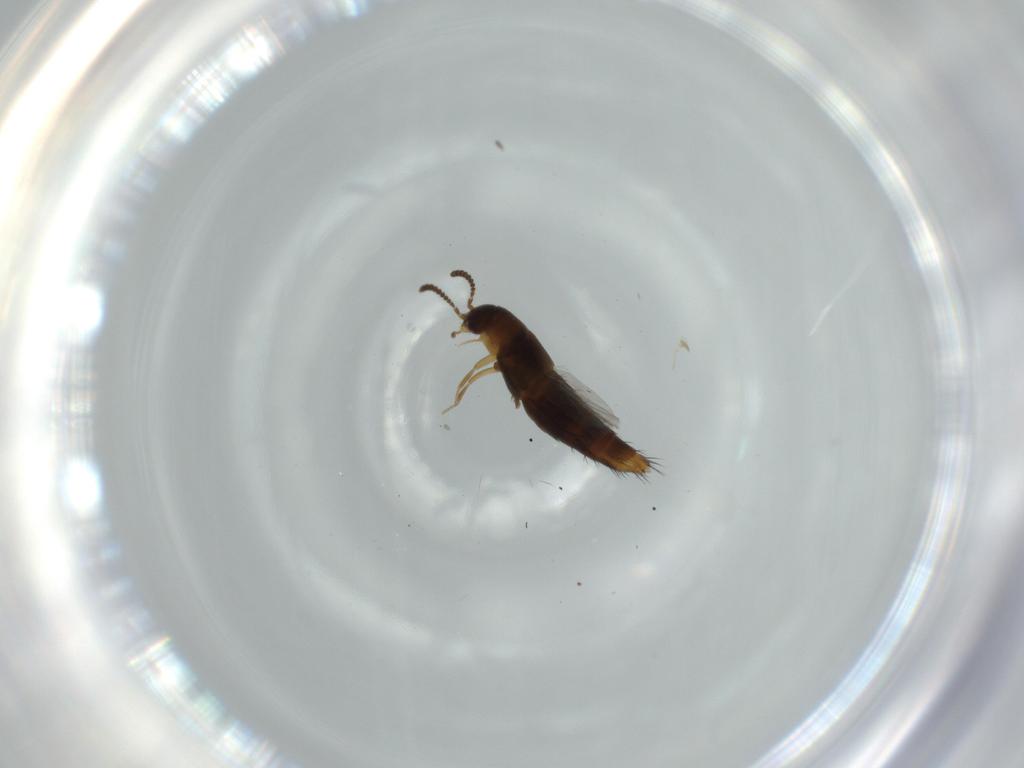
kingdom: Animalia
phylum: Arthropoda
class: Insecta
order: Coleoptera
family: Staphylinidae
